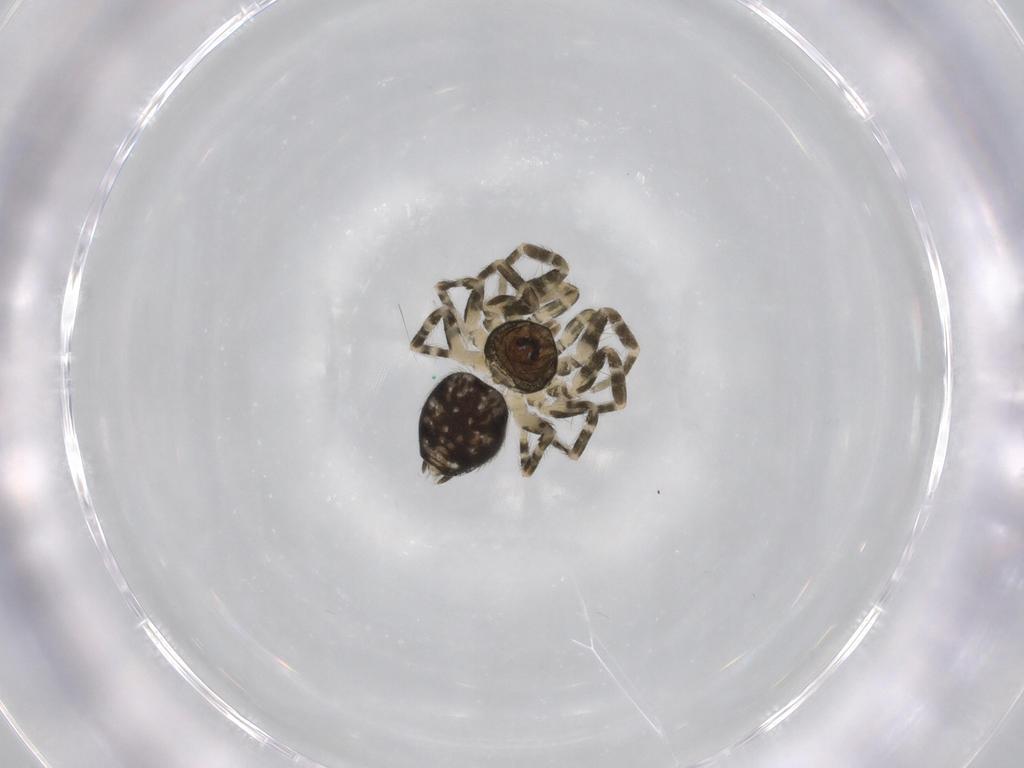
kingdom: Animalia
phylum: Arthropoda
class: Arachnida
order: Araneae
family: Oecobiidae
